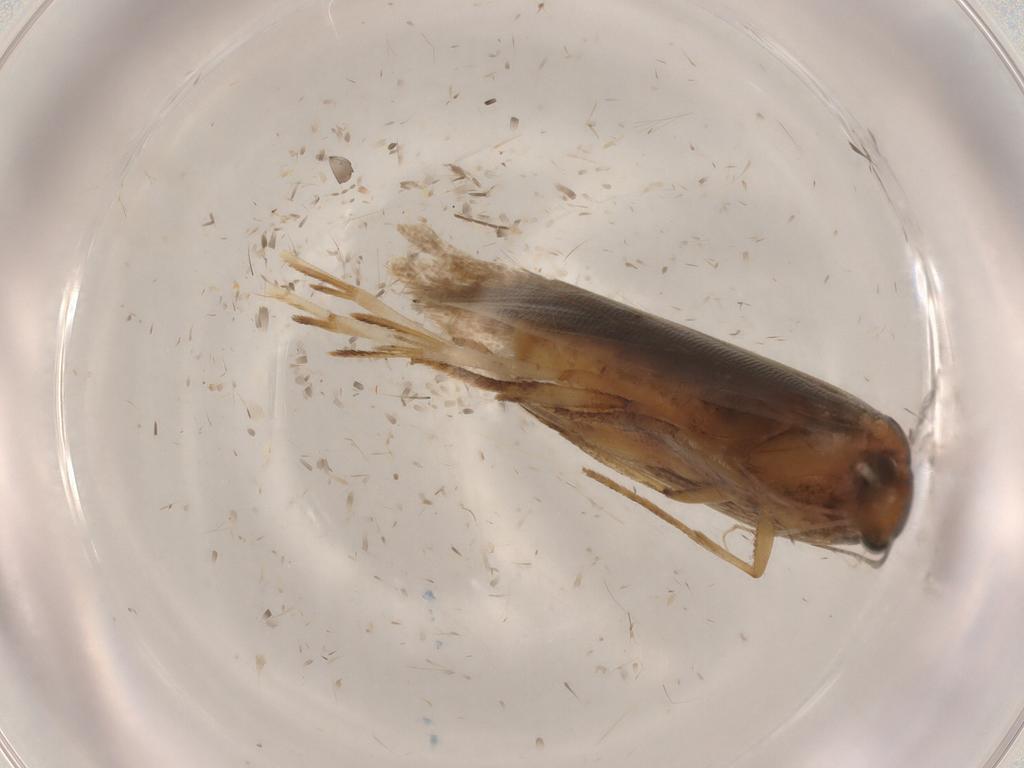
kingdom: Animalia
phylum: Arthropoda
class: Insecta
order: Lepidoptera
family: Gelechiidae
